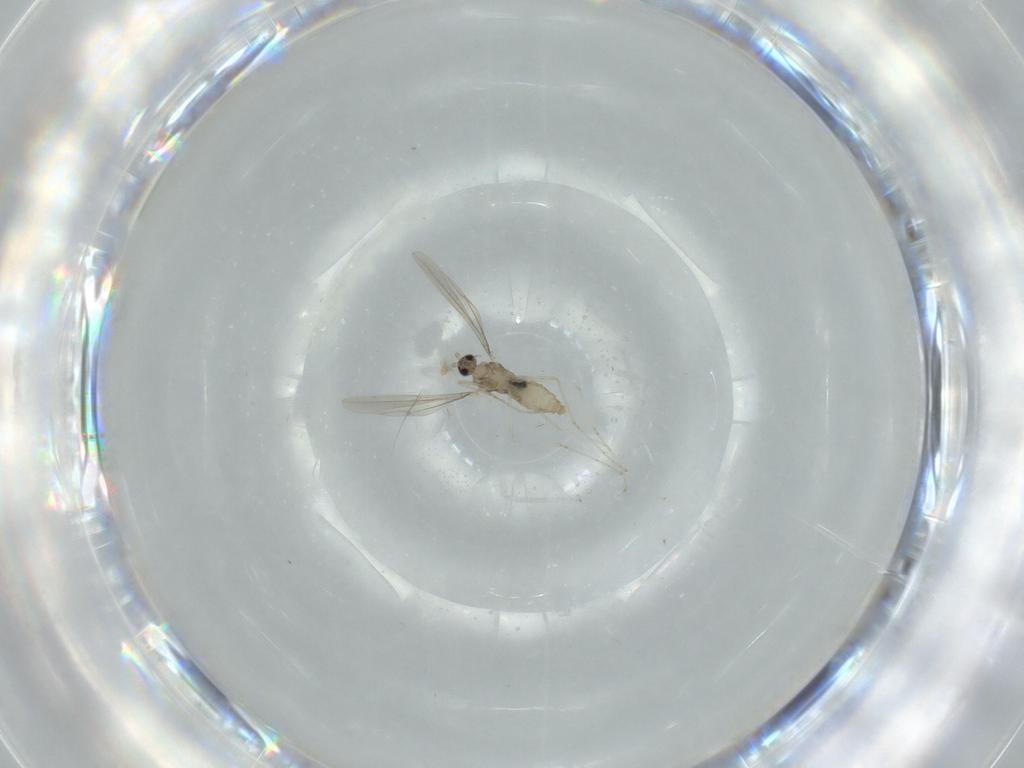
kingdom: Animalia
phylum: Arthropoda
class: Insecta
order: Diptera
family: Cecidomyiidae
